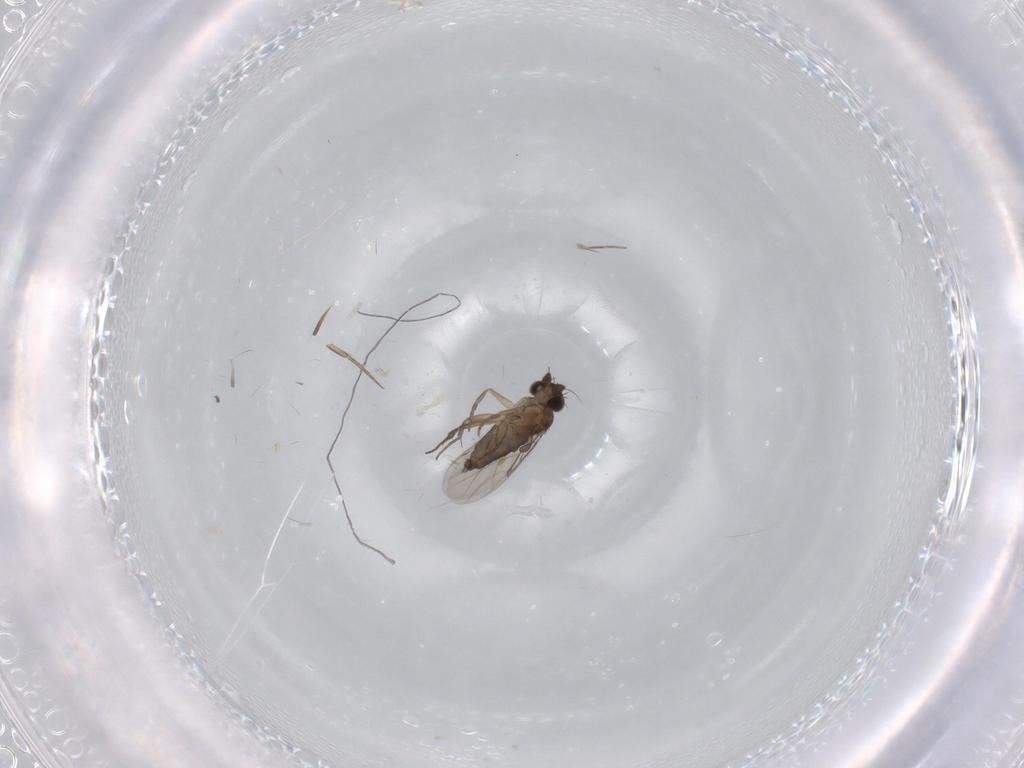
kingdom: Animalia
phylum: Arthropoda
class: Insecta
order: Diptera
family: Phoridae
